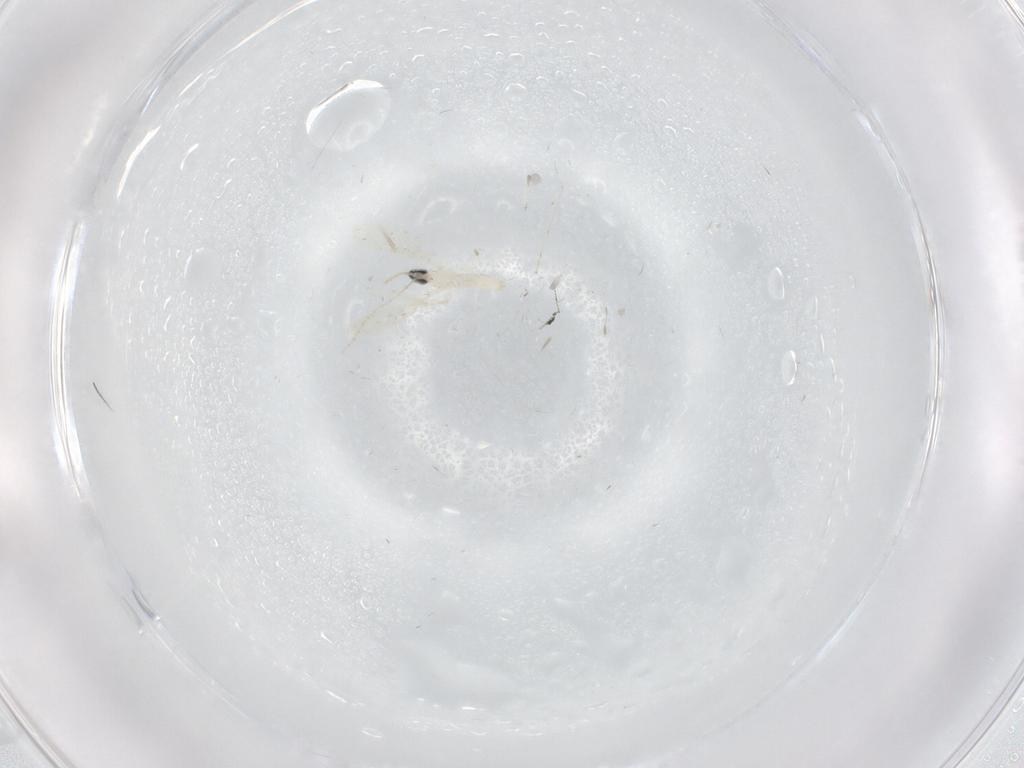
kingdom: Animalia
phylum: Arthropoda
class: Insecta
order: Diptera
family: Cecidomyiidae
